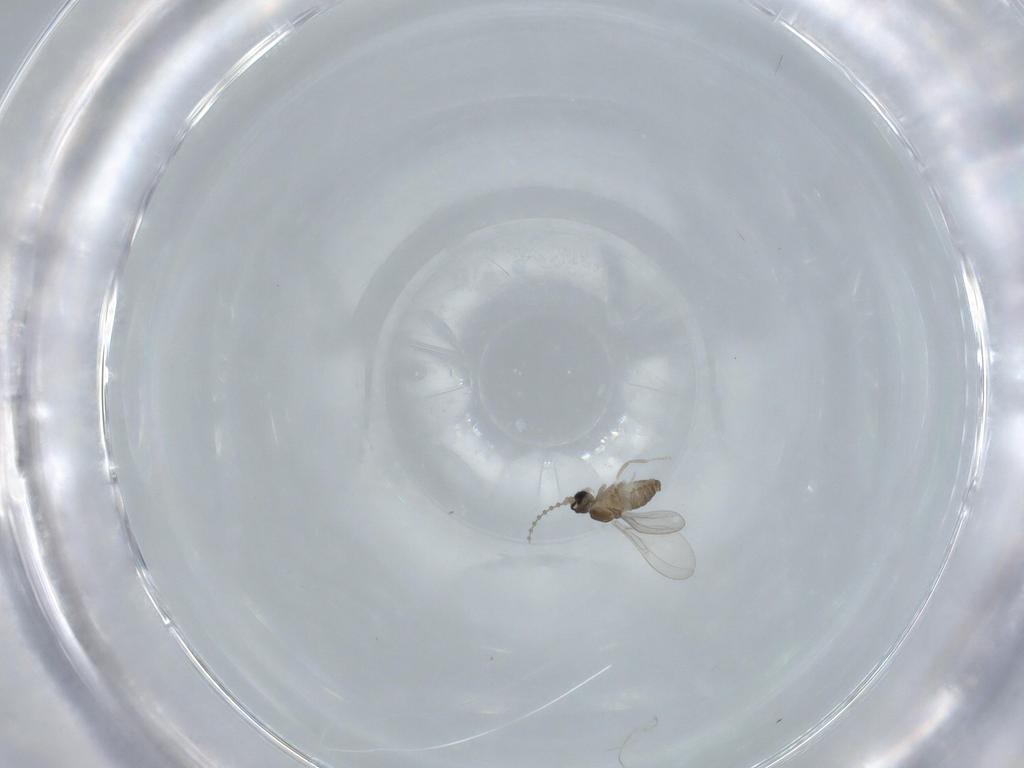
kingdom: Animalia
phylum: Arthropoda
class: Insecta
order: Diptera
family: Cecidomyiidae
